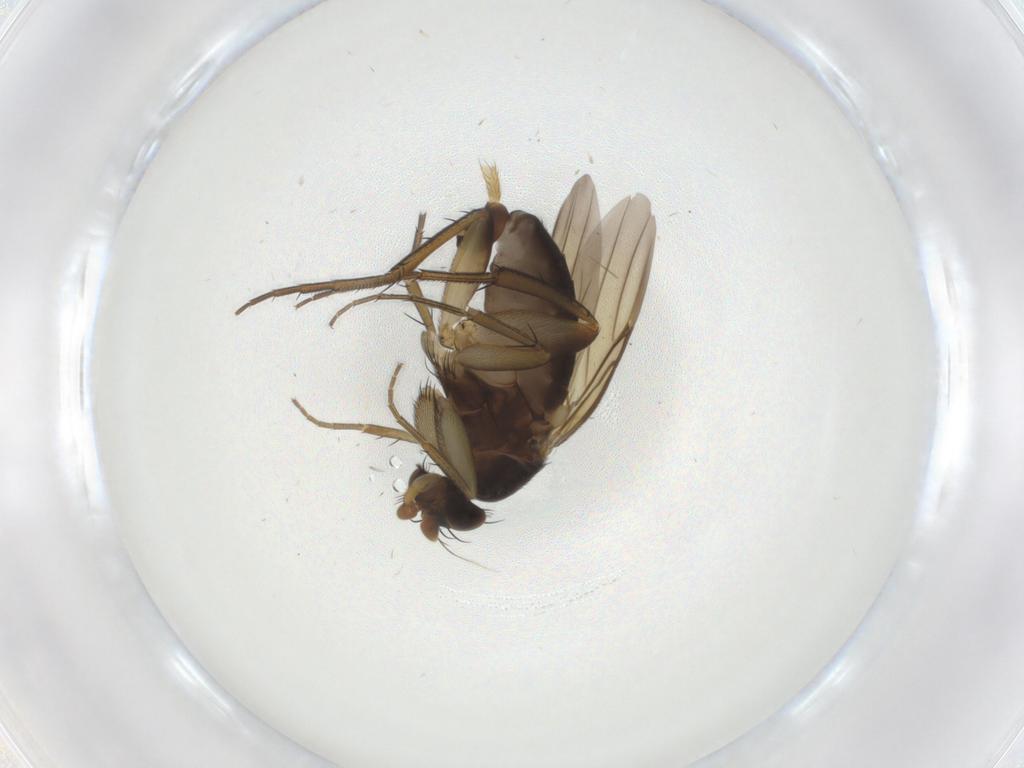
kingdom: Animalia
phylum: Arthropoda
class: Insecta
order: Diptera
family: Phoridae
